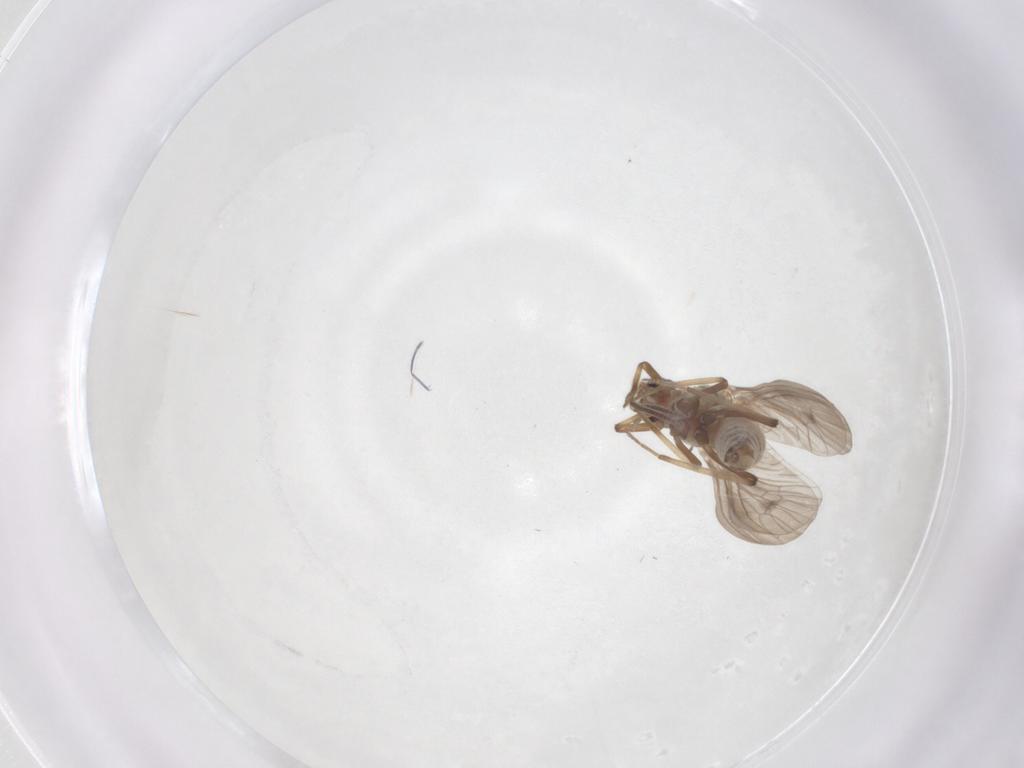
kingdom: Animalia
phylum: Arthropoda
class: Insecta
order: Neuroptera
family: Coniopterygidae
